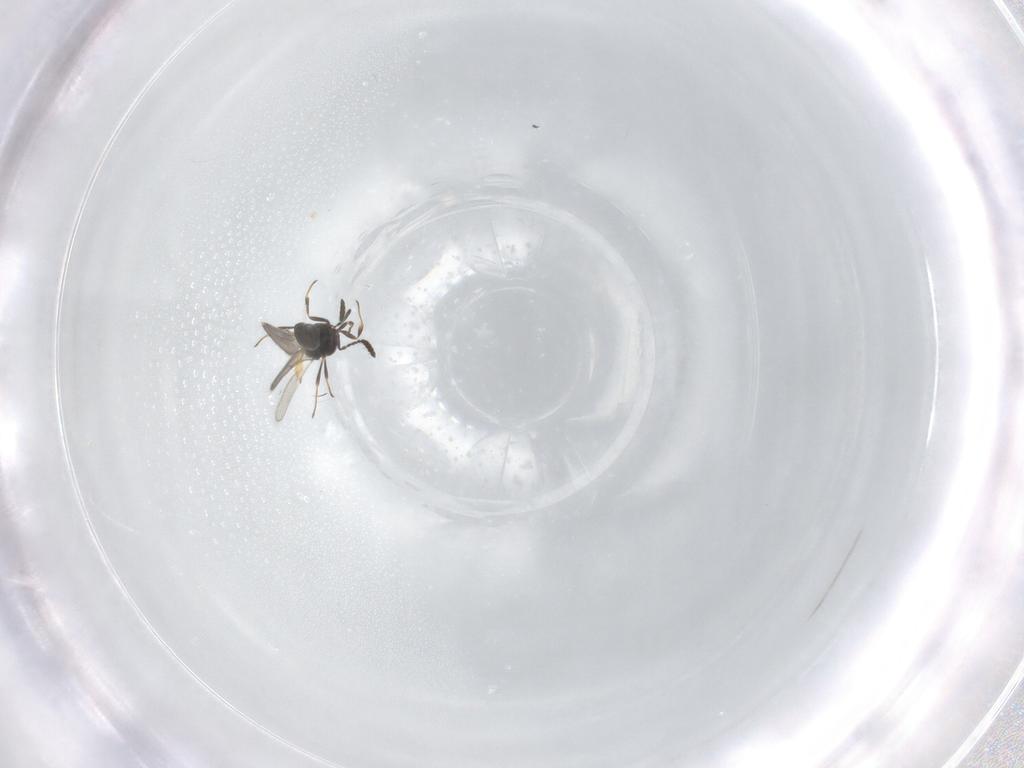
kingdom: Animalia
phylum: Arthropoda
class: Insecta
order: Hymenoptera
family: Scelionidae
